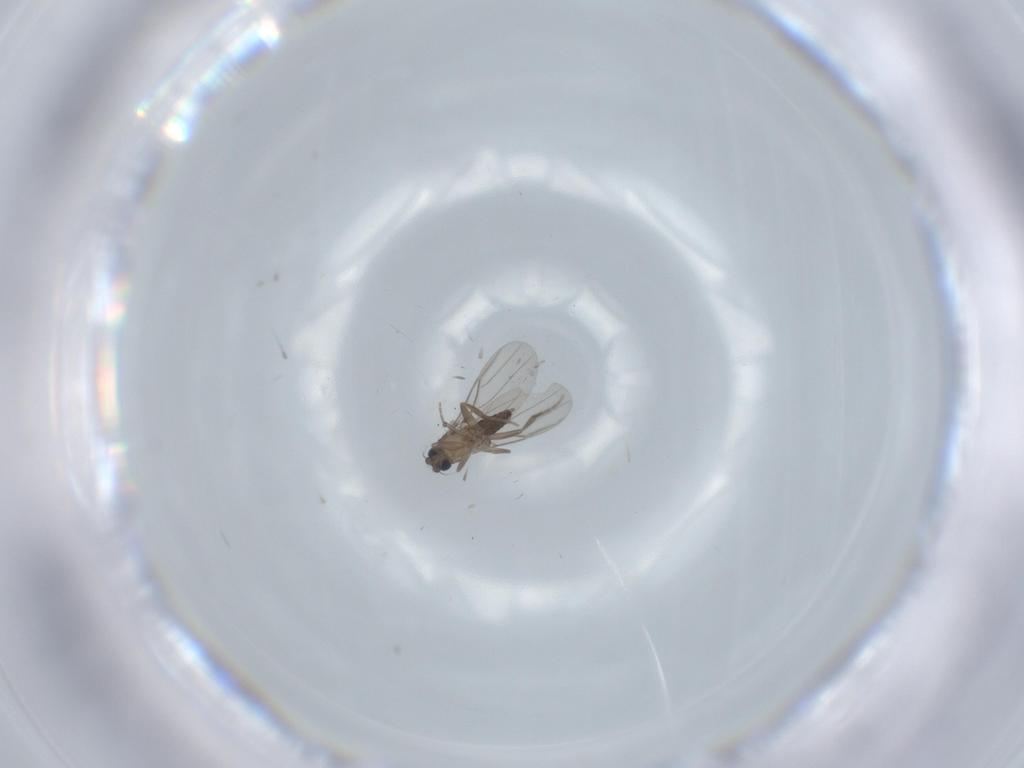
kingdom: Animalia
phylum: Arthropoda
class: Insecta
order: Diptera
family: Phoridae
